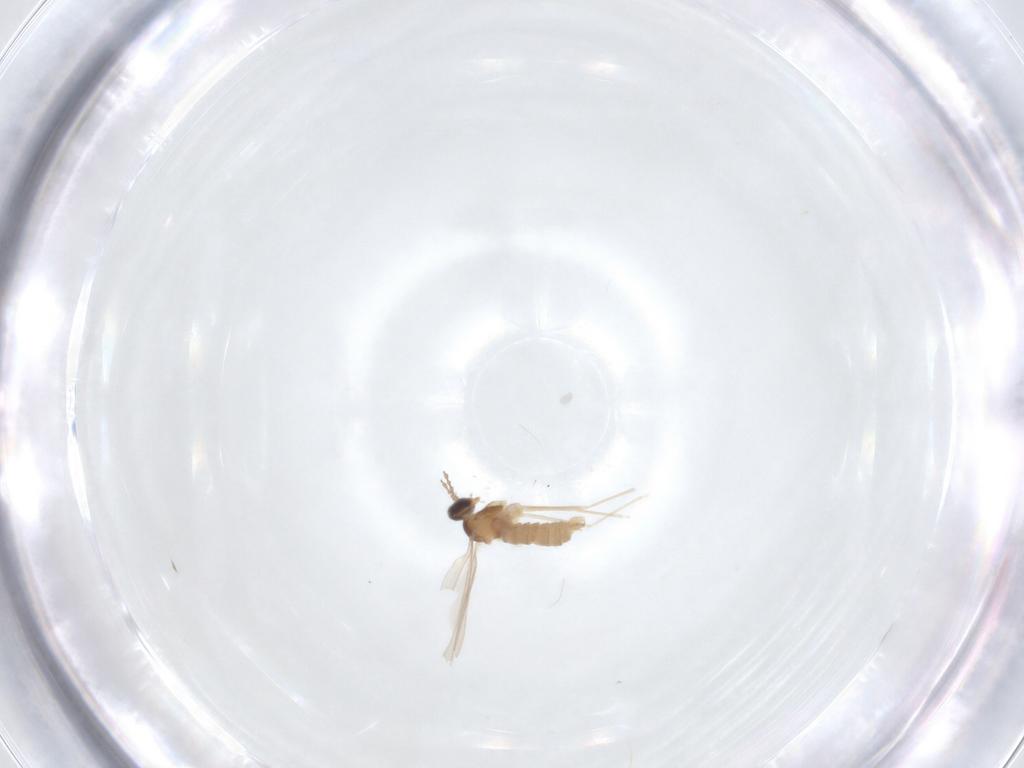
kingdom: Animalia
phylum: Arthropoda
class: Insecta
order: Diptera
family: Cecidomyiidae
